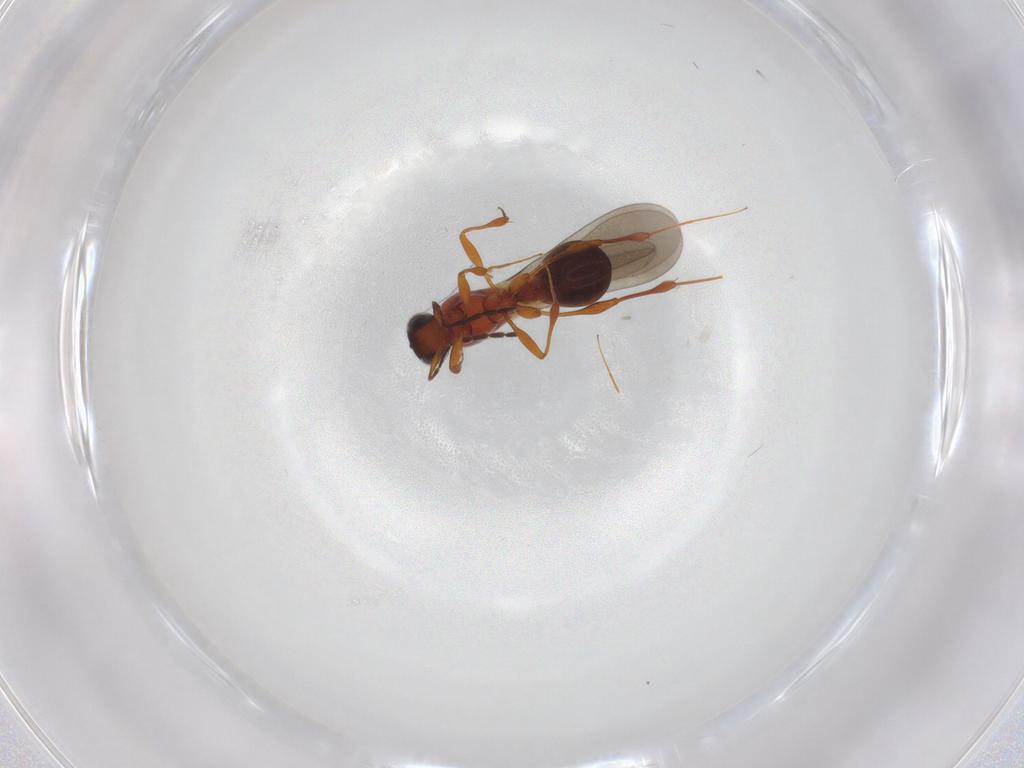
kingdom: Animalia
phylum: Arthropoda
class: Insecta
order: Hymenoptera
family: Platygastridae
